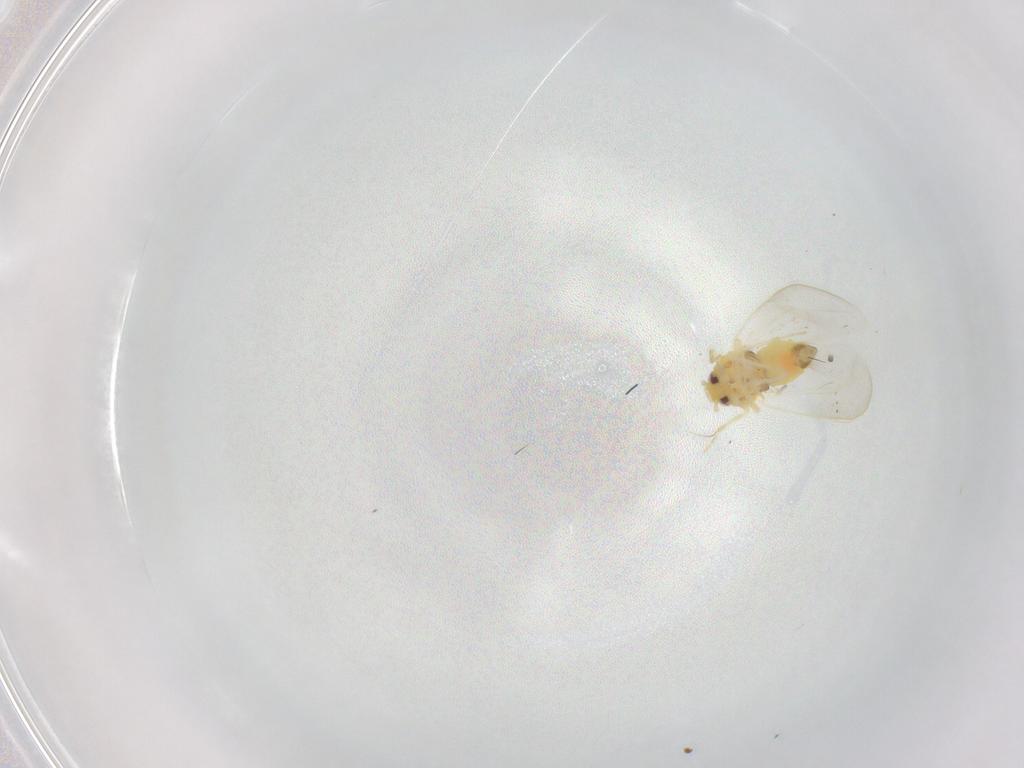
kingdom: Animalia
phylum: Arthropoda
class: Insecta
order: Hemiptera
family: Aleyrodidae
